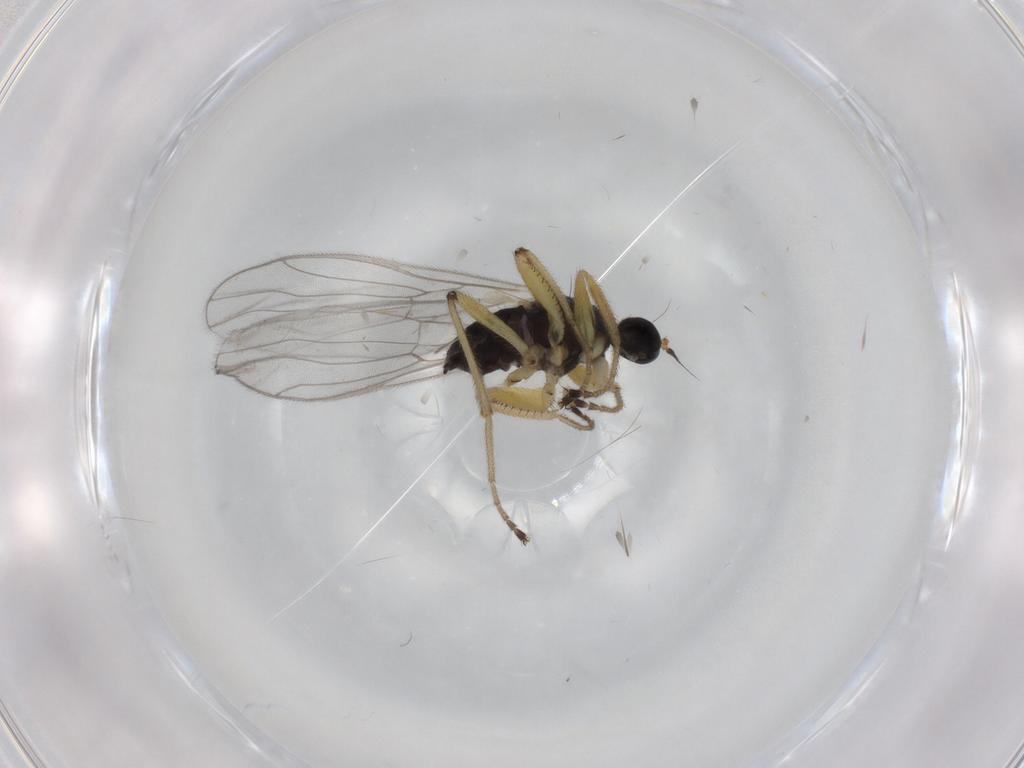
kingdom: Animalia
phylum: Arthropoda
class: Insecta
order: Diptera
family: Hybotidae
